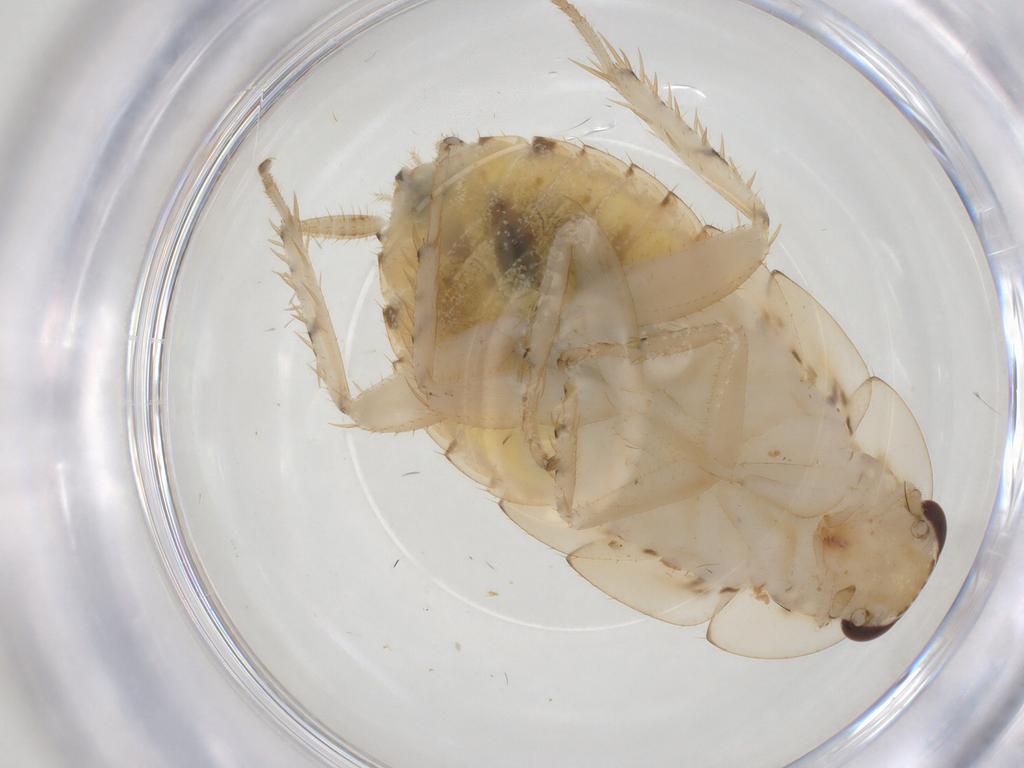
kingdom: Animalia
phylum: Arthropoda
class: Insecta
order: Blattodea
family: Ectobiidae
